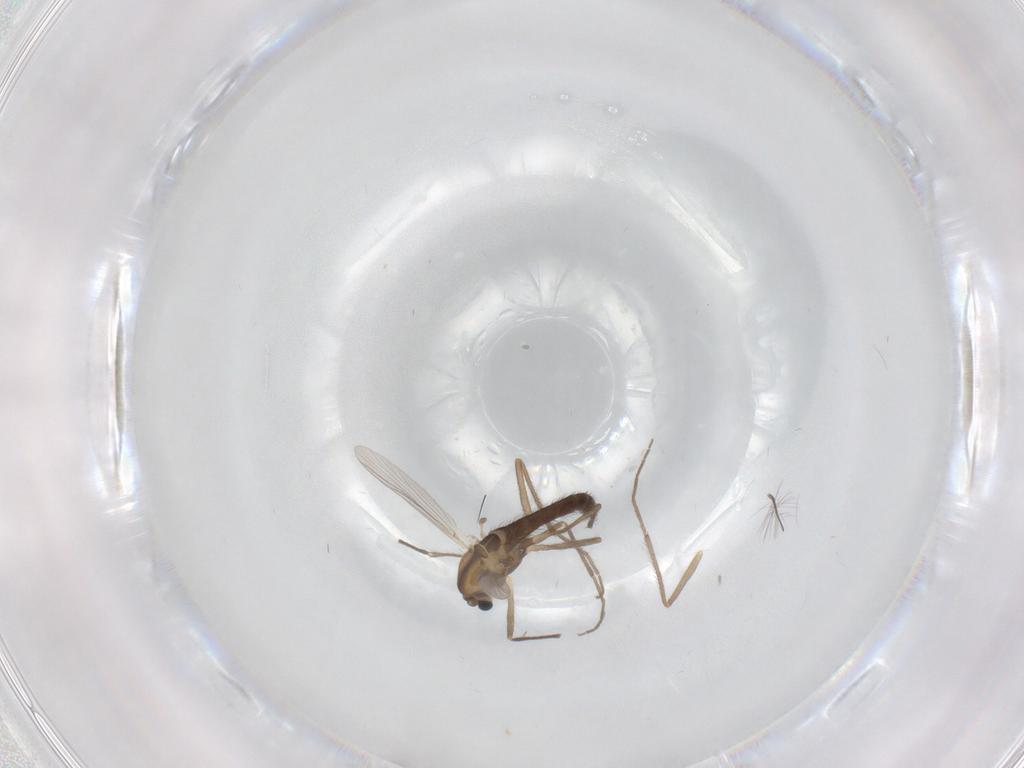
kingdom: Animalia
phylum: Arthropoda
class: Insecta
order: Diptera
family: Chironomidae
